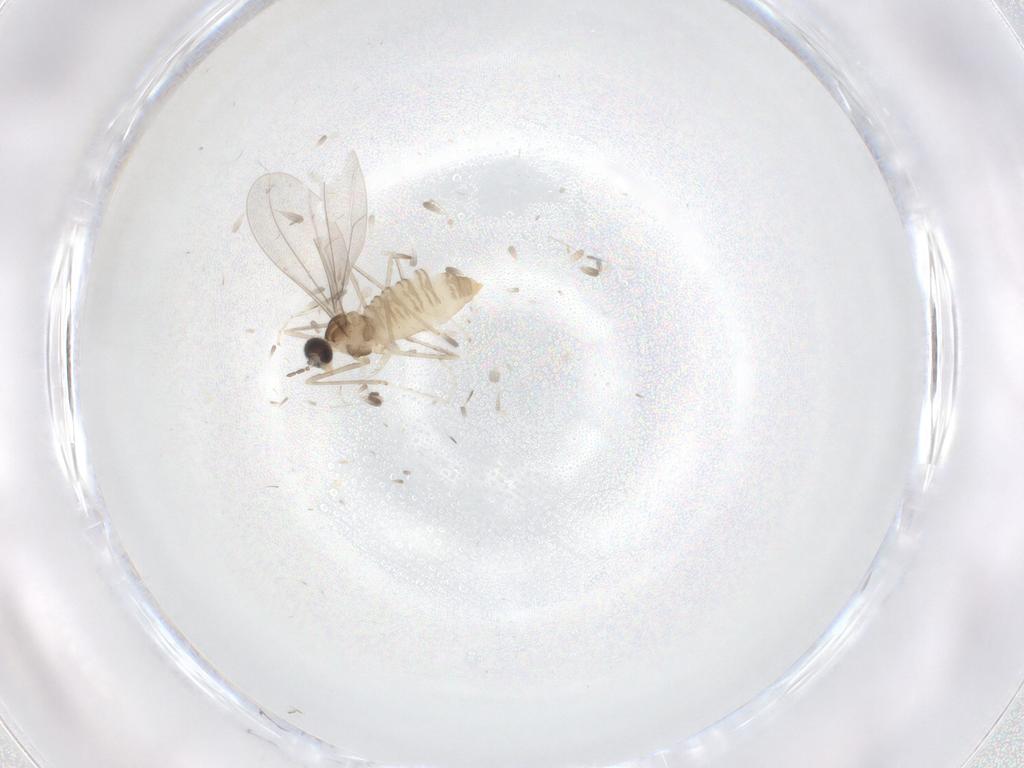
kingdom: Animalia
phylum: Arthropoda
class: Insecta
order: Diptera
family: Cecidomyiidae
